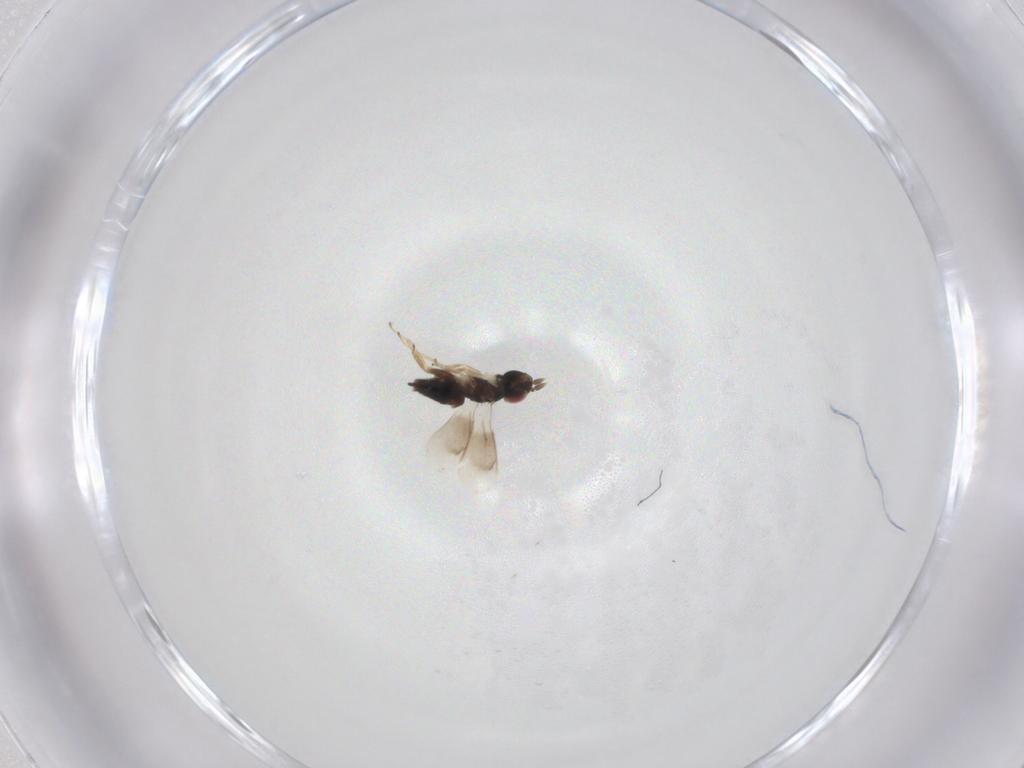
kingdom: Animalia
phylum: Arthropoda
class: Insecta
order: Hymenoptera
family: Eulophidae
